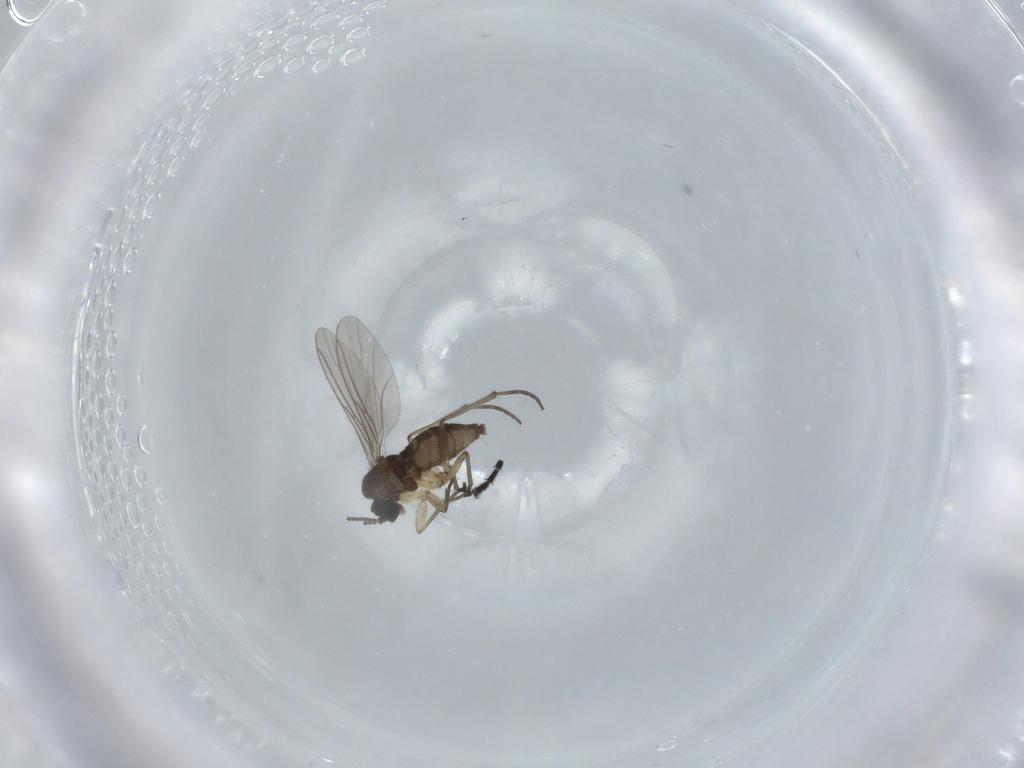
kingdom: Animalia
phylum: Arthropoda
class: Insecta
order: Diptera
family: Sciaridae
